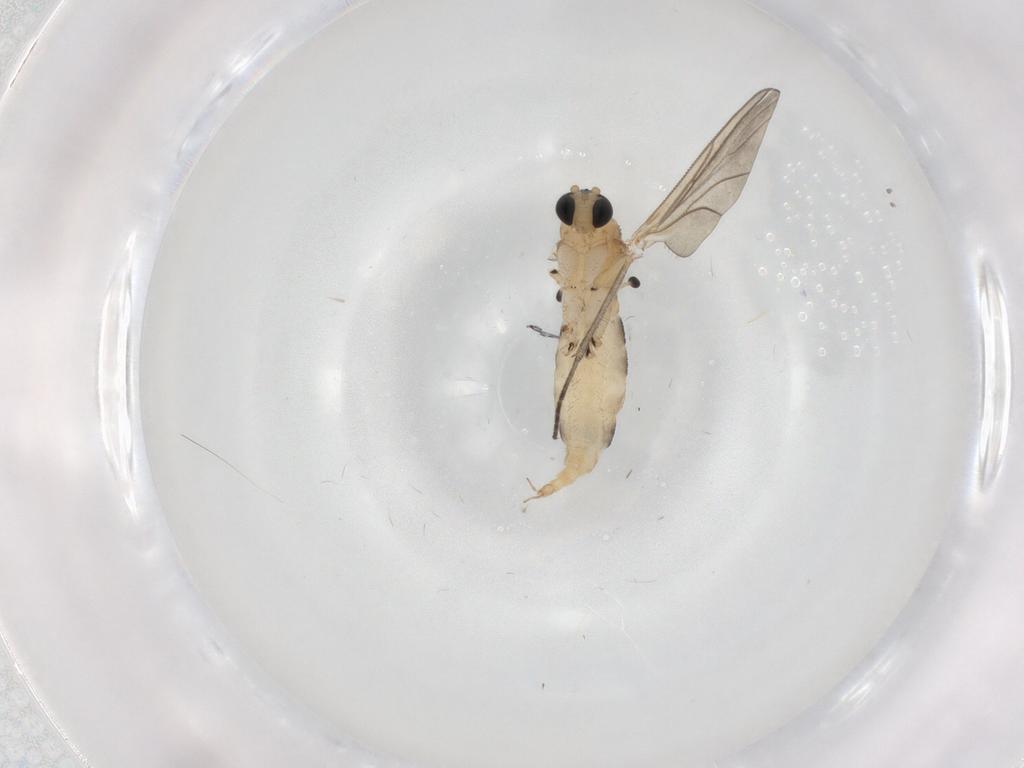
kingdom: Animalia
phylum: Arthropoda
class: Insecta
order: Diptera
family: Sciaridae
